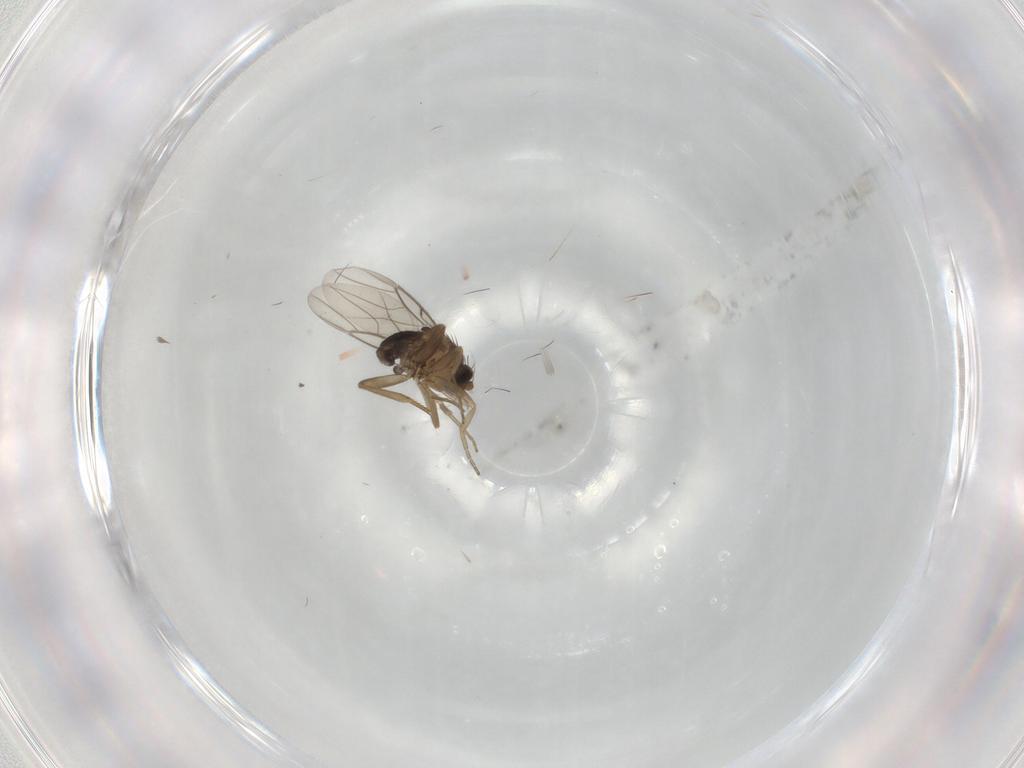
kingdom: Animalia
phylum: Arthropoda
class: Insecta
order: Diptera
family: Phoridae
